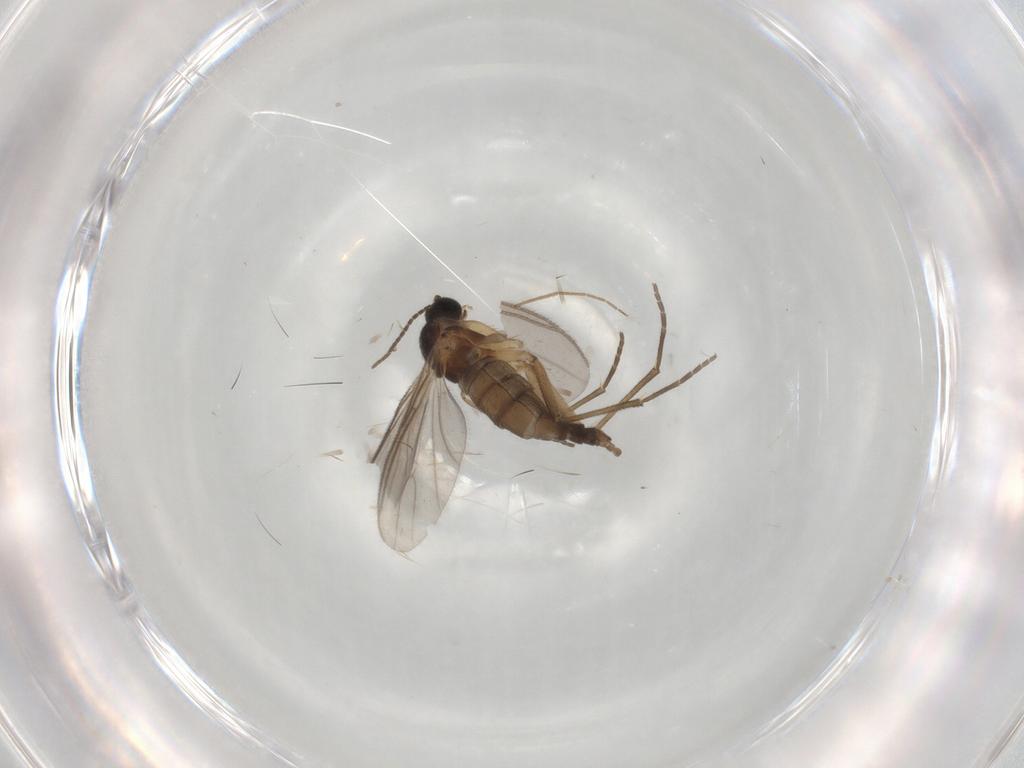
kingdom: Animalia
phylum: Arthropoda
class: Insecta
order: Diptera
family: Sciaridae
